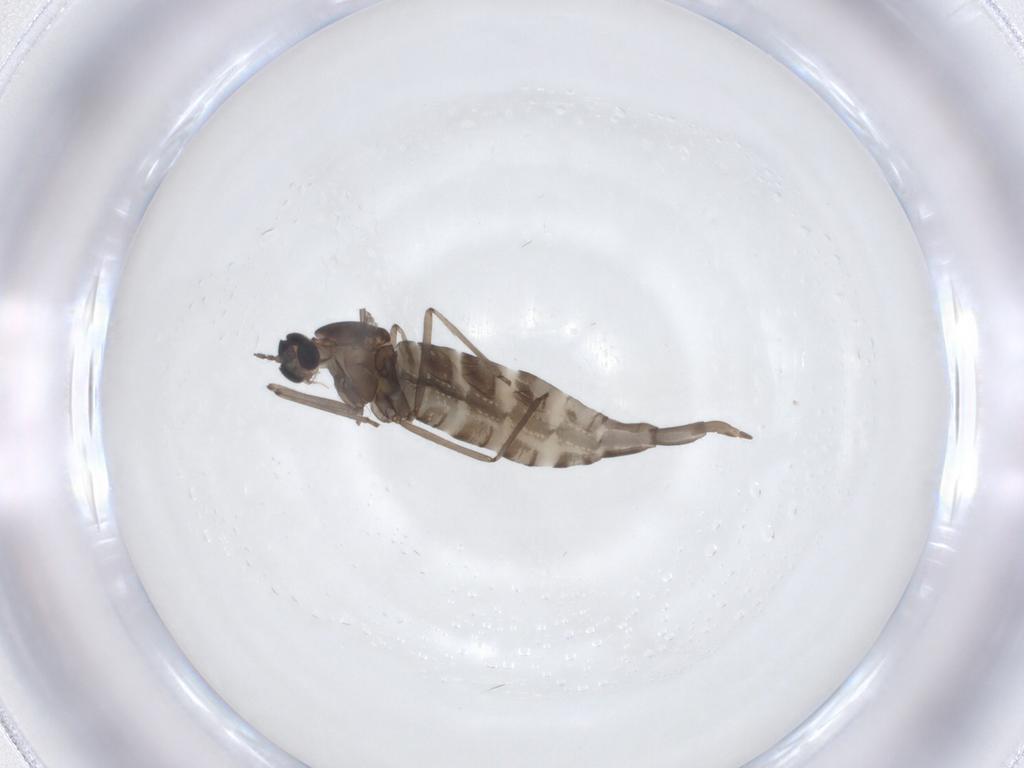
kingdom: Animalia
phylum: Arthropoda
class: Insecta
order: Diptera
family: Cecidomyiidae
